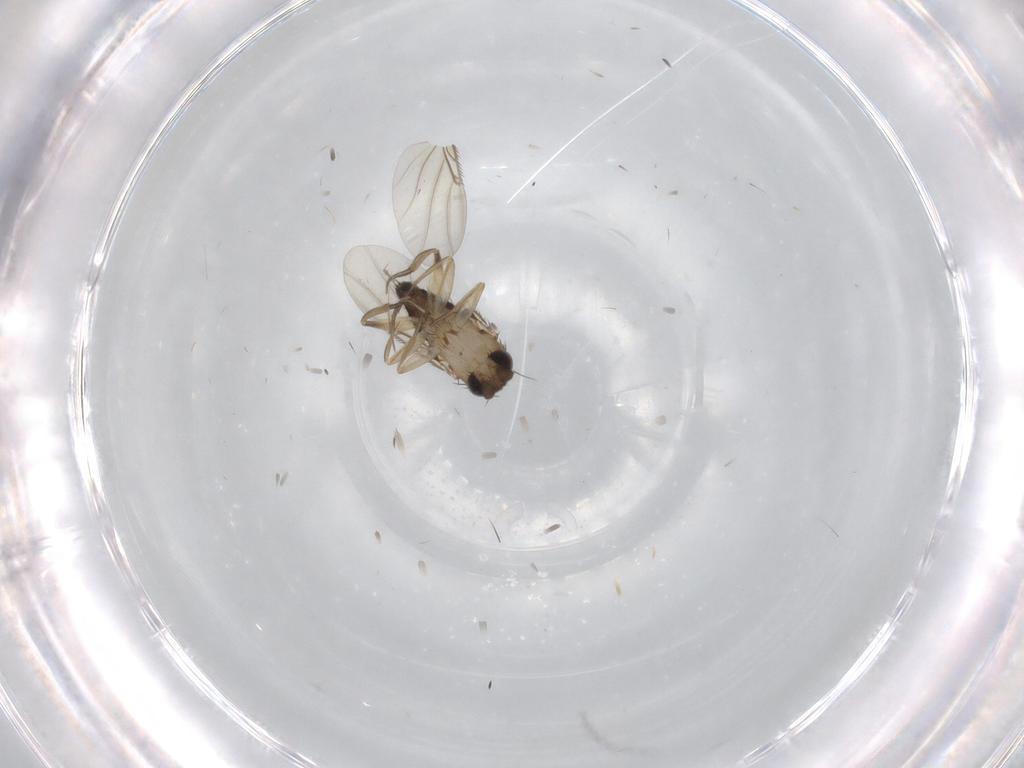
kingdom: Animalia
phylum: Arthropoda
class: Insecta
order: Diptera
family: Phoridae
